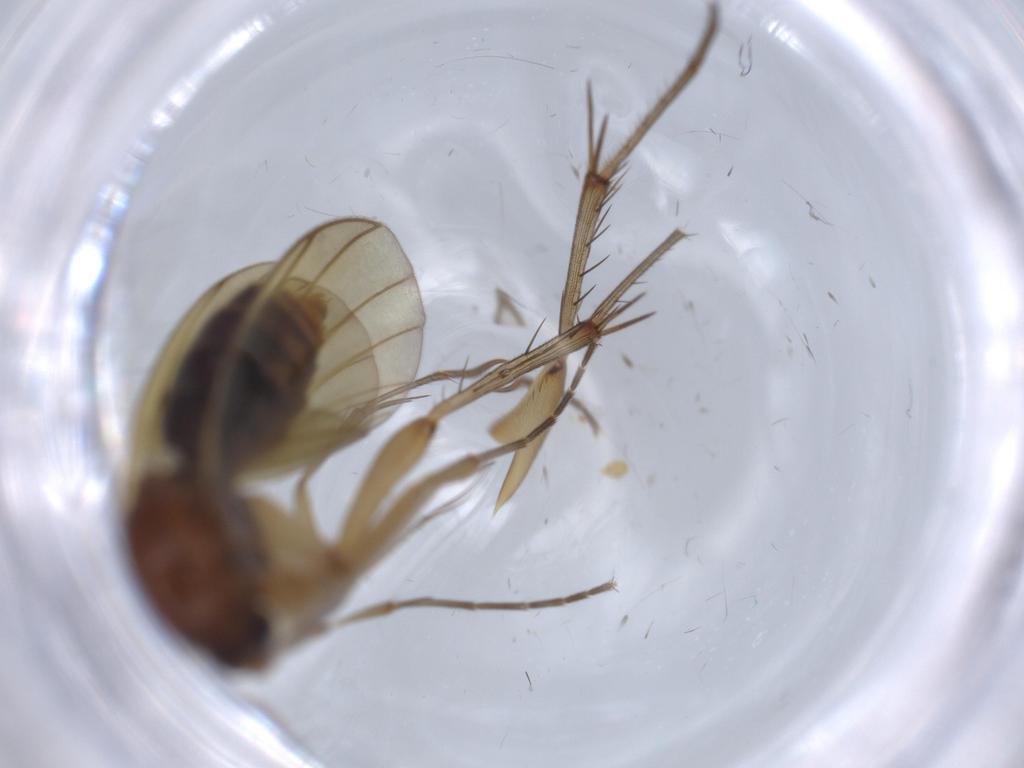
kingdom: Animalia
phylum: Arthropoda
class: Insecta
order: Diptera
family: Mycetophilidae
